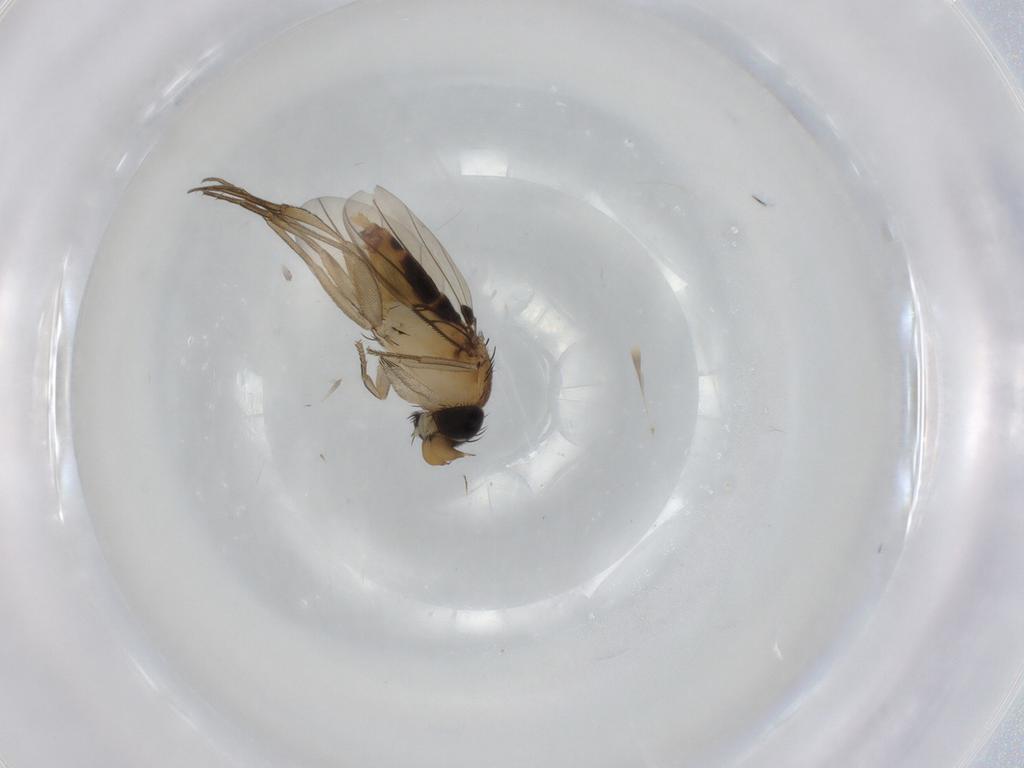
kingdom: Animalia
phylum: Arthropoda
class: Insecta
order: Diptera
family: Phoridae
